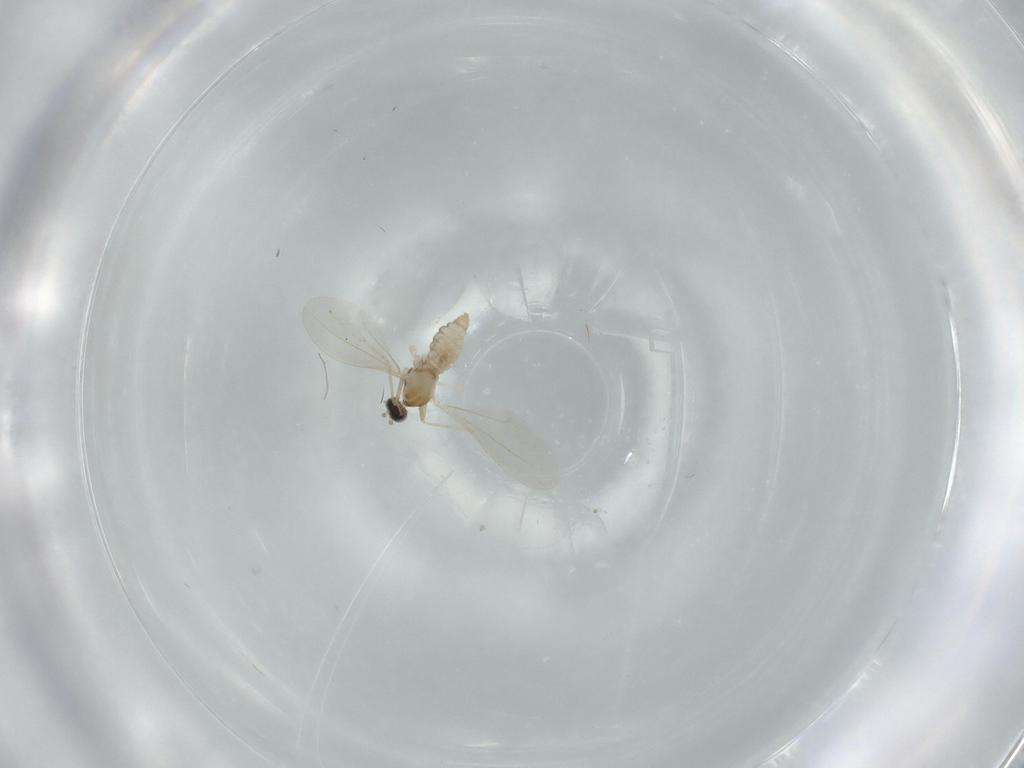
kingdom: Animalia
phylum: Arthropoda
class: Insecta
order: Diptera
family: Cecidomyiidae
